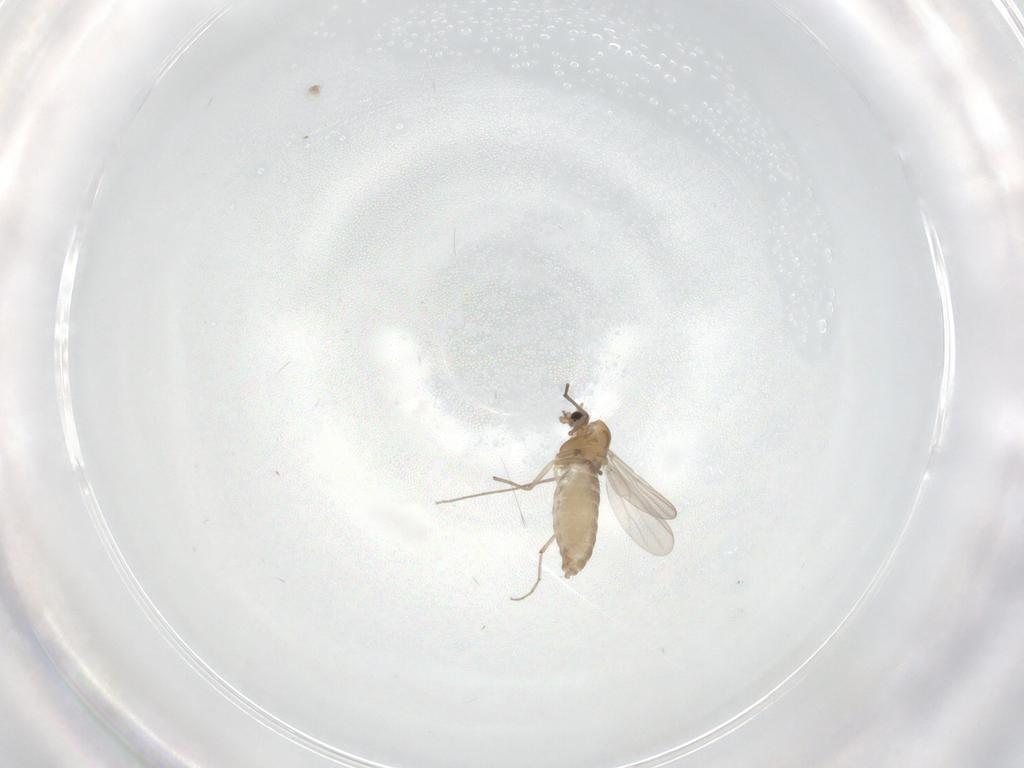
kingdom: Animalia
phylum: Arthropoda
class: Insecta
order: Diptera
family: Chironomidae
